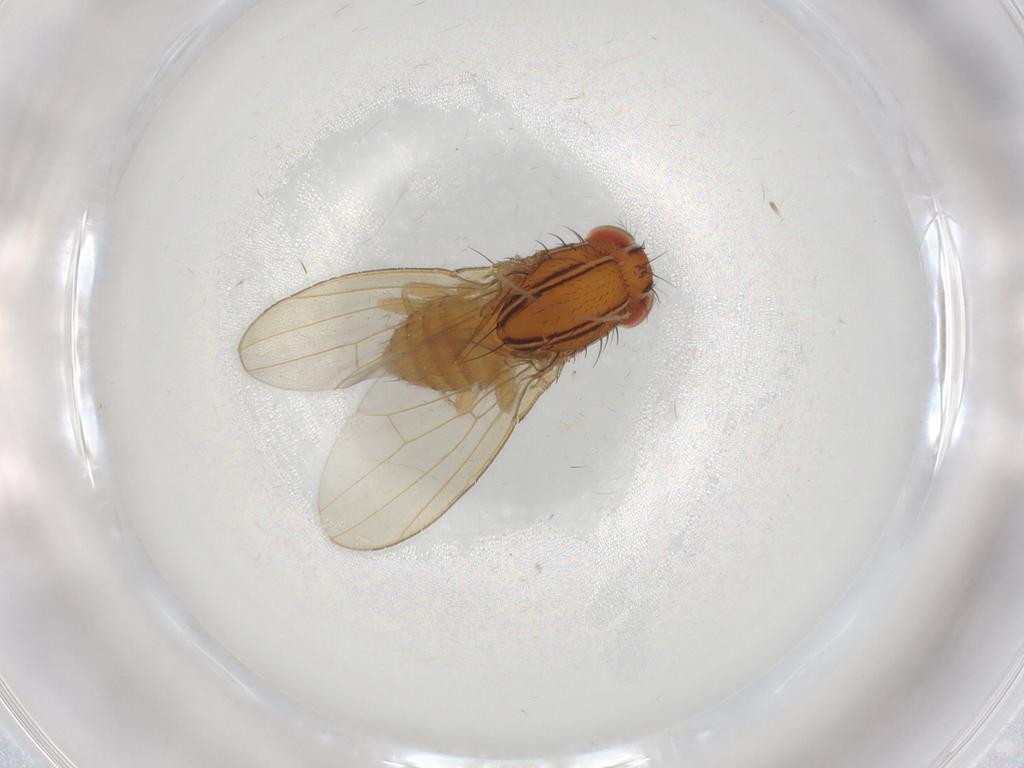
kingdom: Animalia
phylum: Arthropoda
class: Insecta
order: Diptera
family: Drosophilidae
